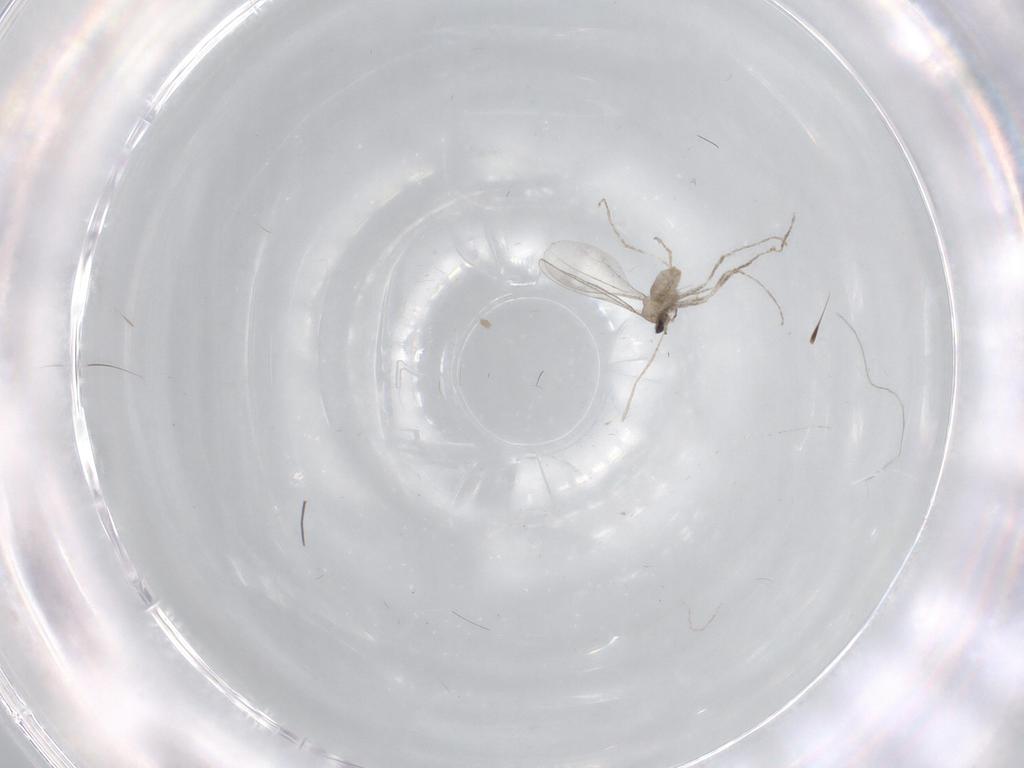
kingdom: Animalia
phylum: Arthropoda
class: Insecta
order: Diptera
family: Cecidomyiidae
